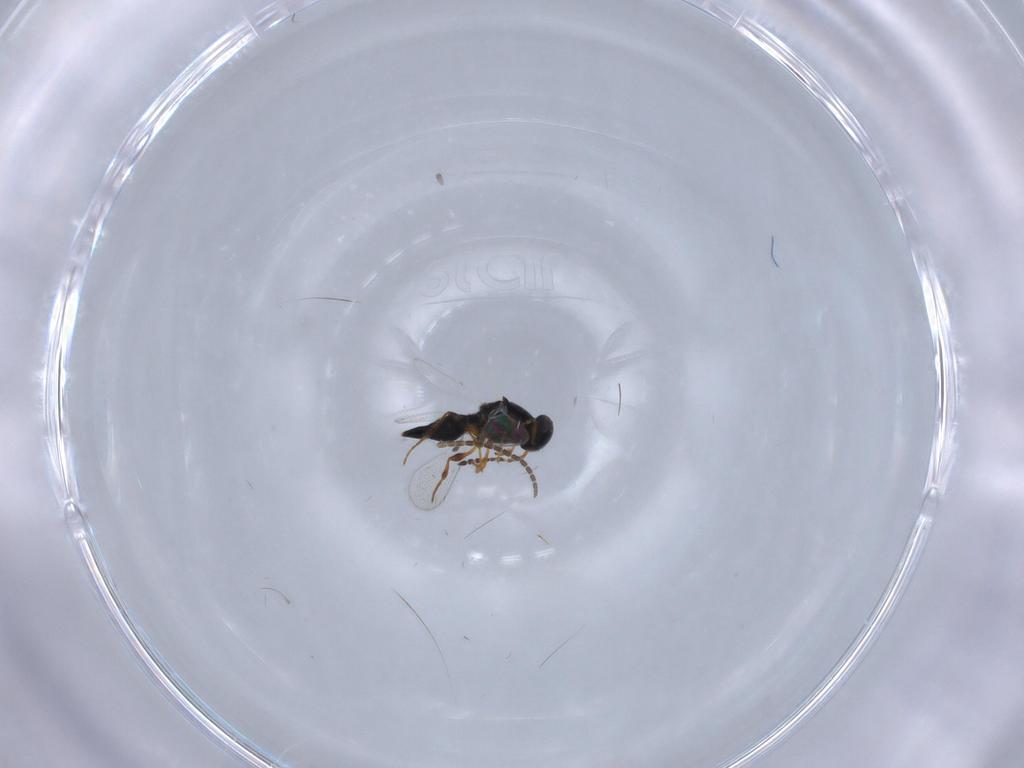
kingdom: Animalia
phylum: Arthropoda
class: Insecta
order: Hymenoptera
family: Platygastridae
